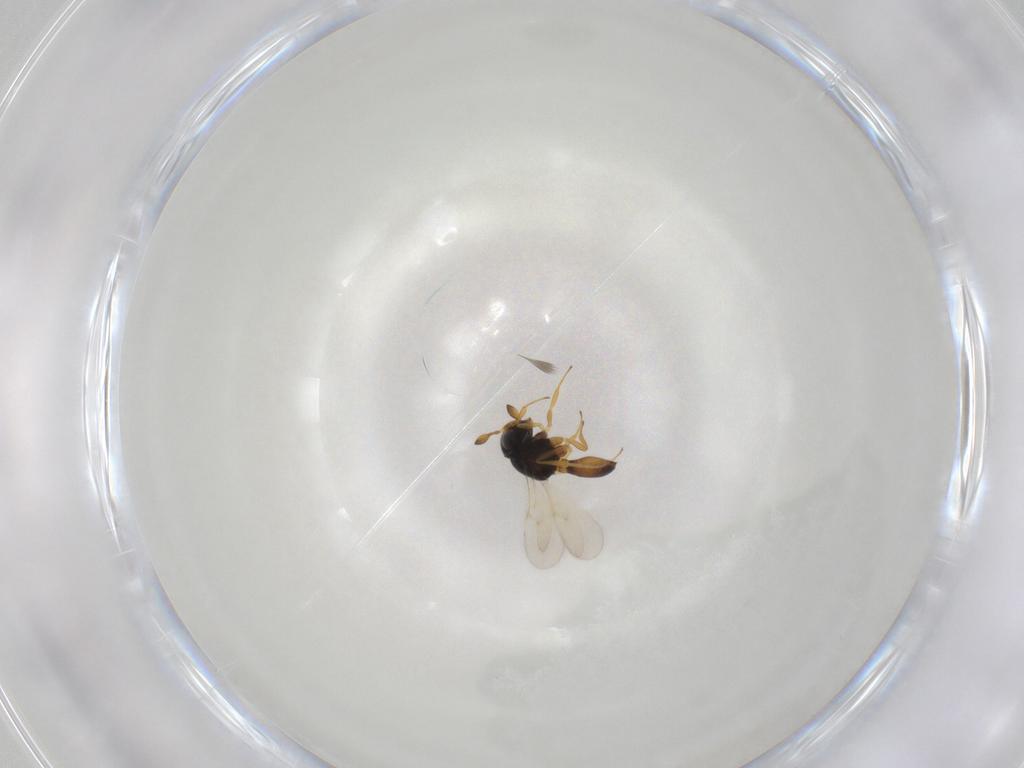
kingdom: Animalia
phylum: Arthropoda
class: Insecta
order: Hymenoptera
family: Scelionidae
